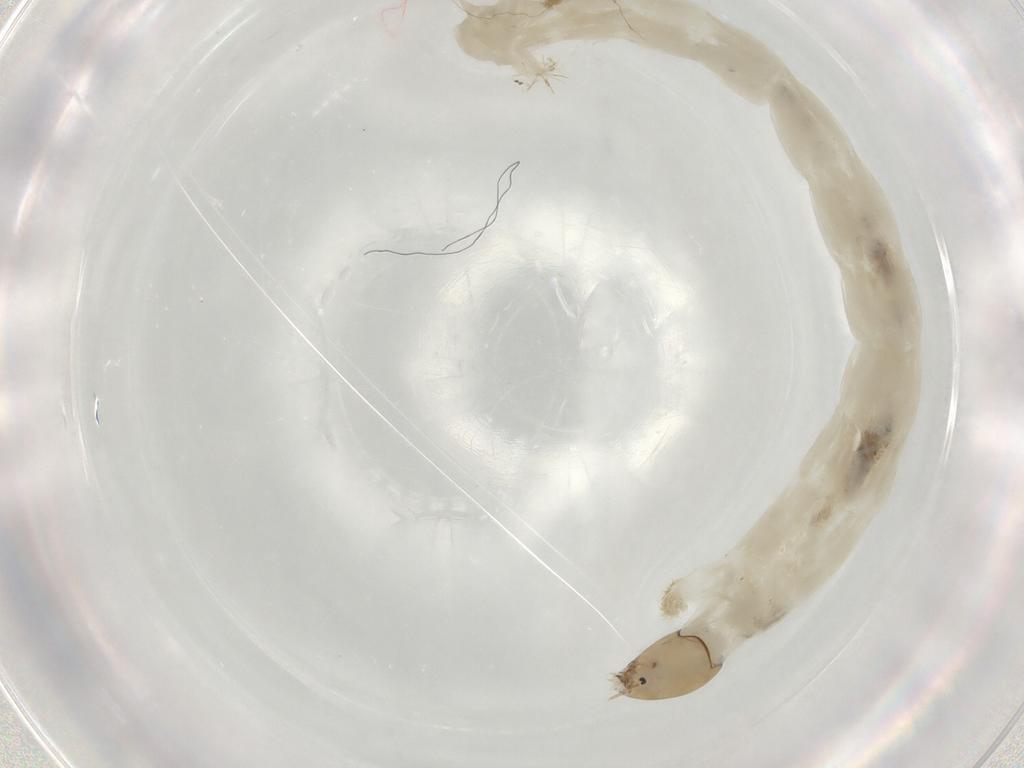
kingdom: Animalia
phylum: Arthropoda
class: Insecta
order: Diptera
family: Chironomidae
